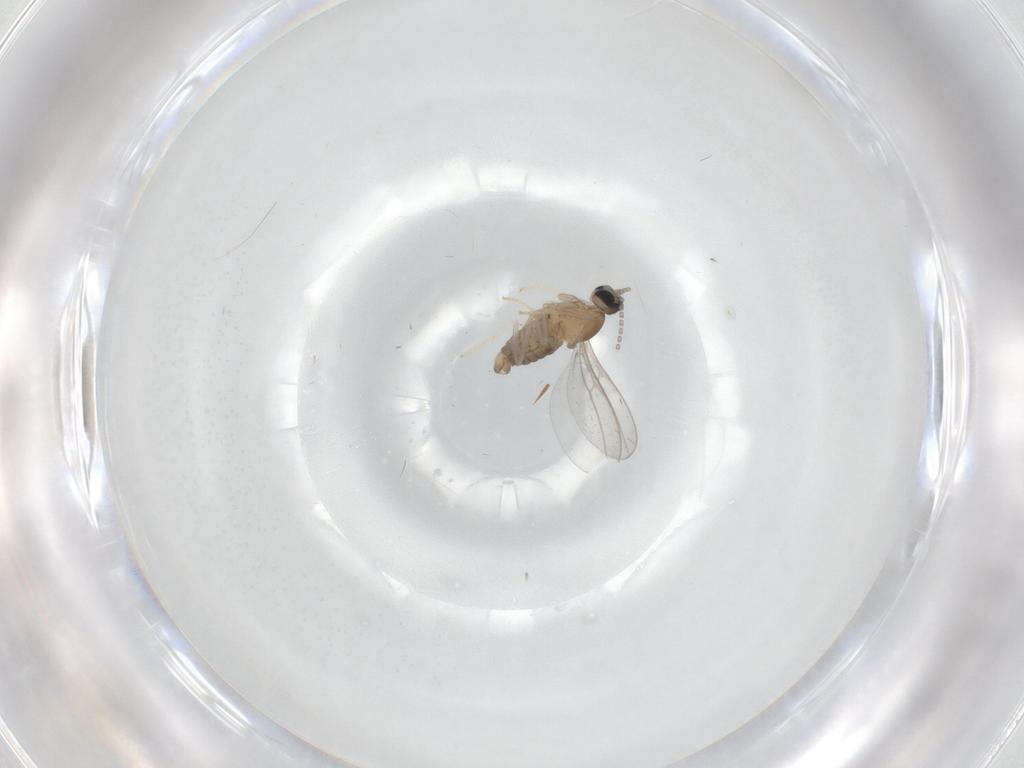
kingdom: Animalia
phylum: Arthropoda
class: Insecta
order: Diptera
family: Cecidomyiidae
